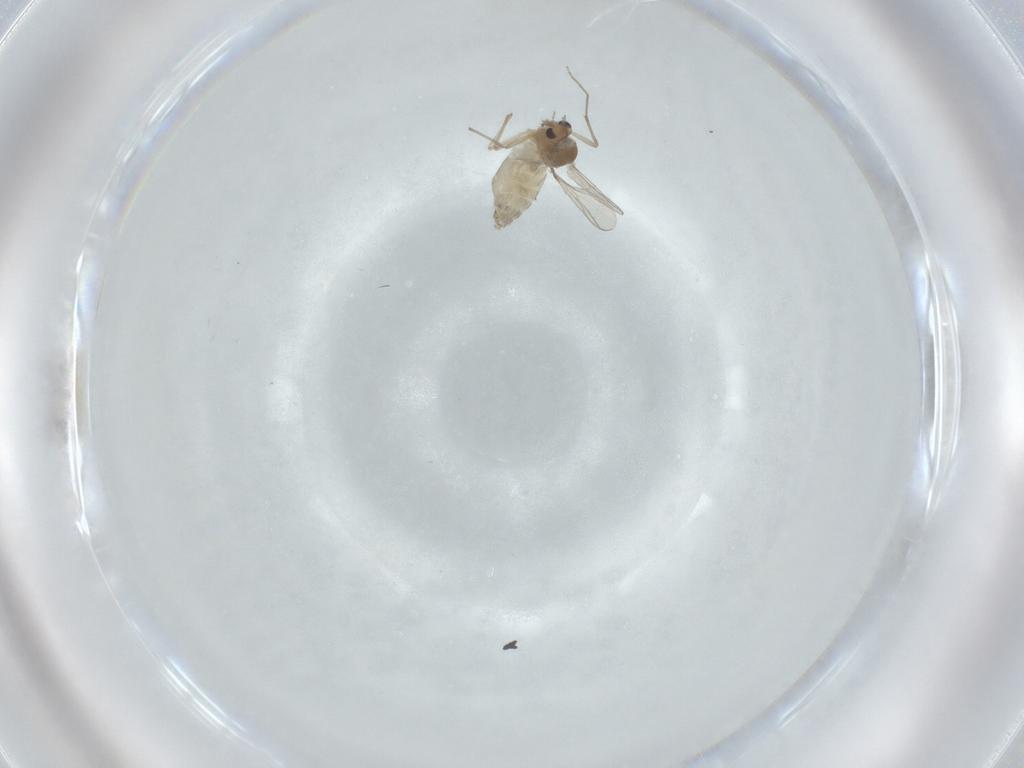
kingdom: Animalia
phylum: Arthropoda
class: Insecta
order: Diptera
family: Chironomidae
